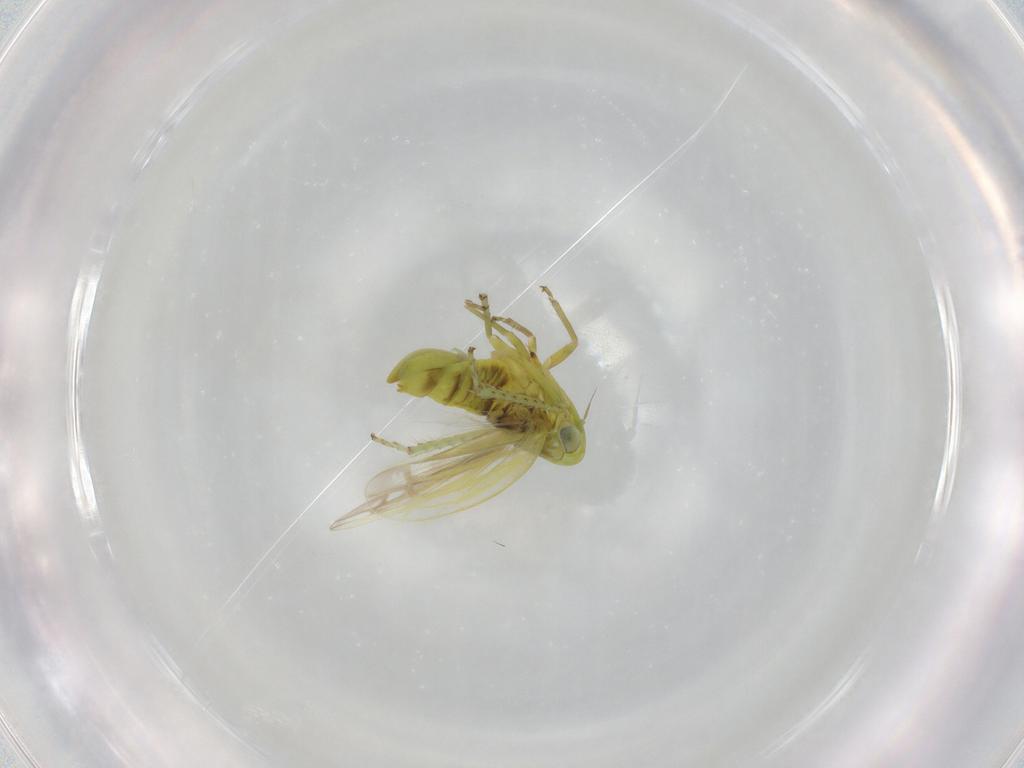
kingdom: Animalia
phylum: Arthropoda
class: Insecta
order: Hemiptera
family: Cicadellidae
